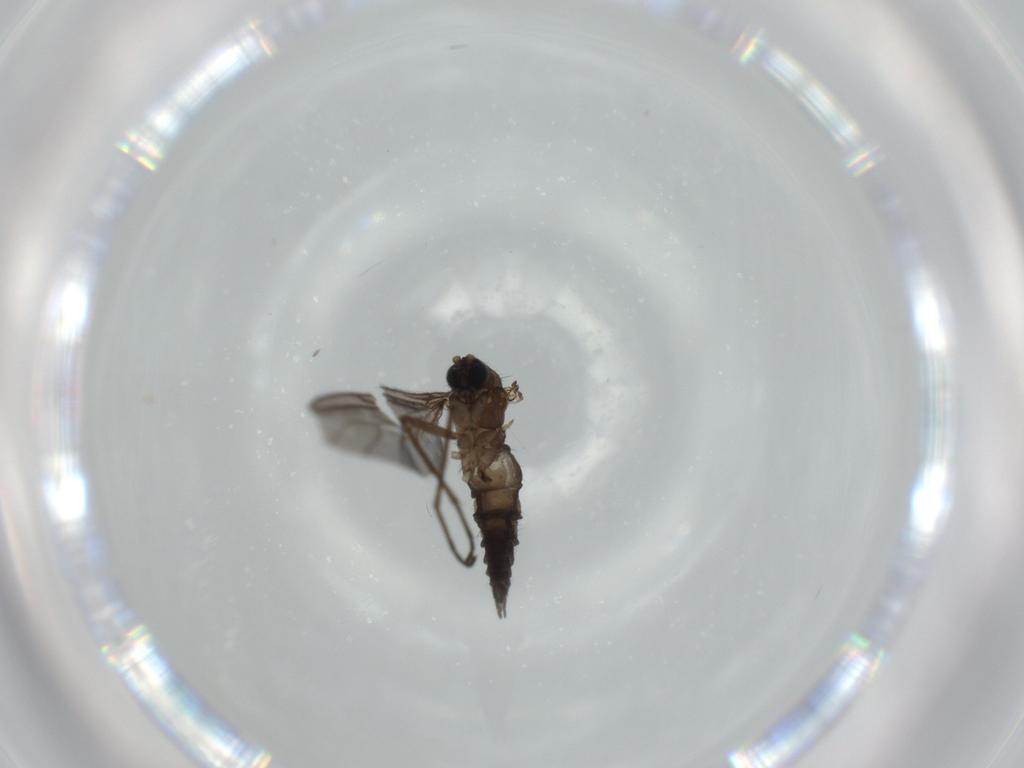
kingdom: Animalia
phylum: Arthropoda
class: Insecta
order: Diptera
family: Sciaridae
